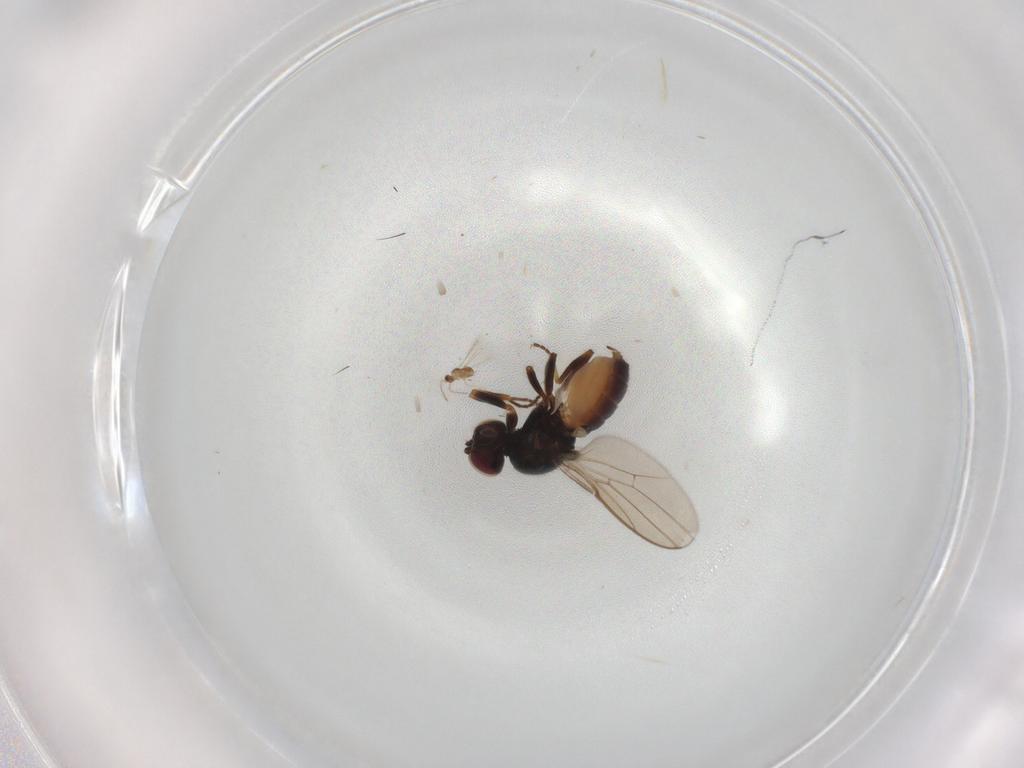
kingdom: Animalia
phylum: Arthropoda
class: Insecta
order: Diptera
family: Chloropidae
